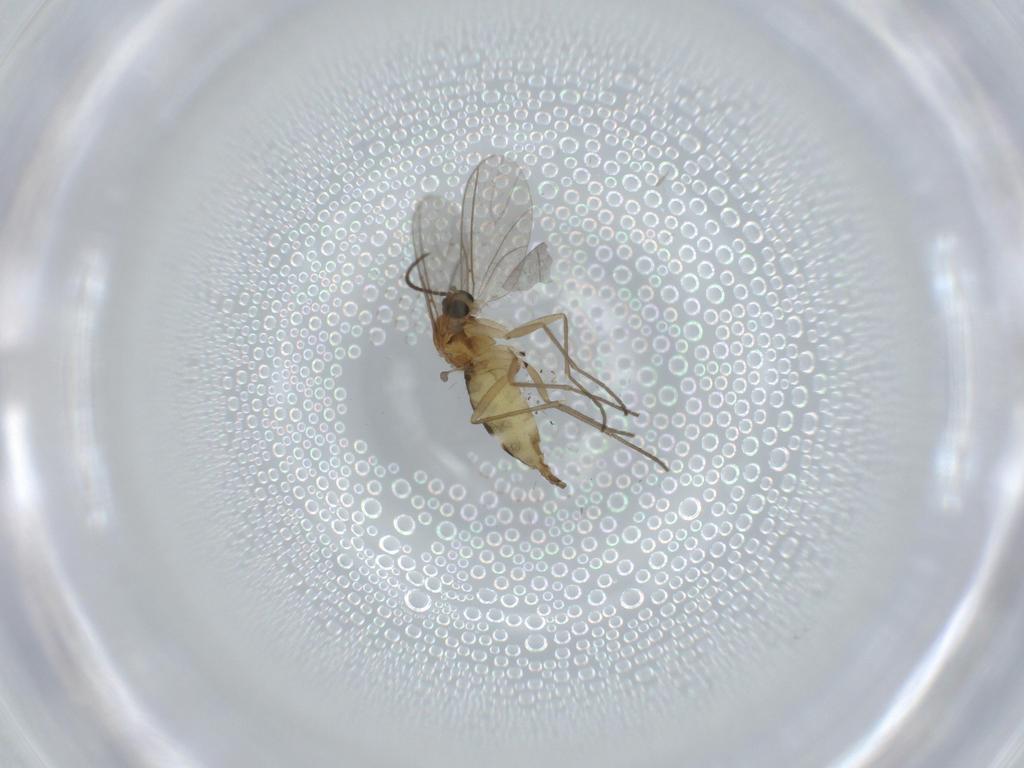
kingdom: Animalia
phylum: Arthropoda
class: Insecta
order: Diptera
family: Sciaridae
